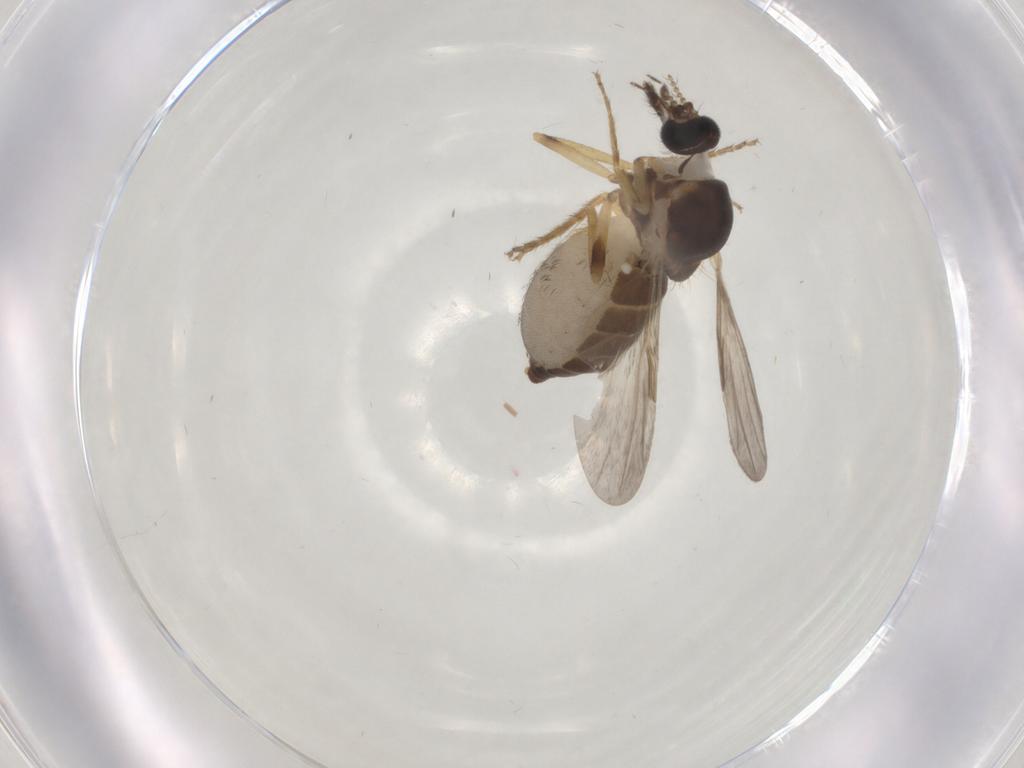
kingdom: Animalia
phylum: Arthropoda
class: Insecta
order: Diptera
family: Ceratopogonidae
